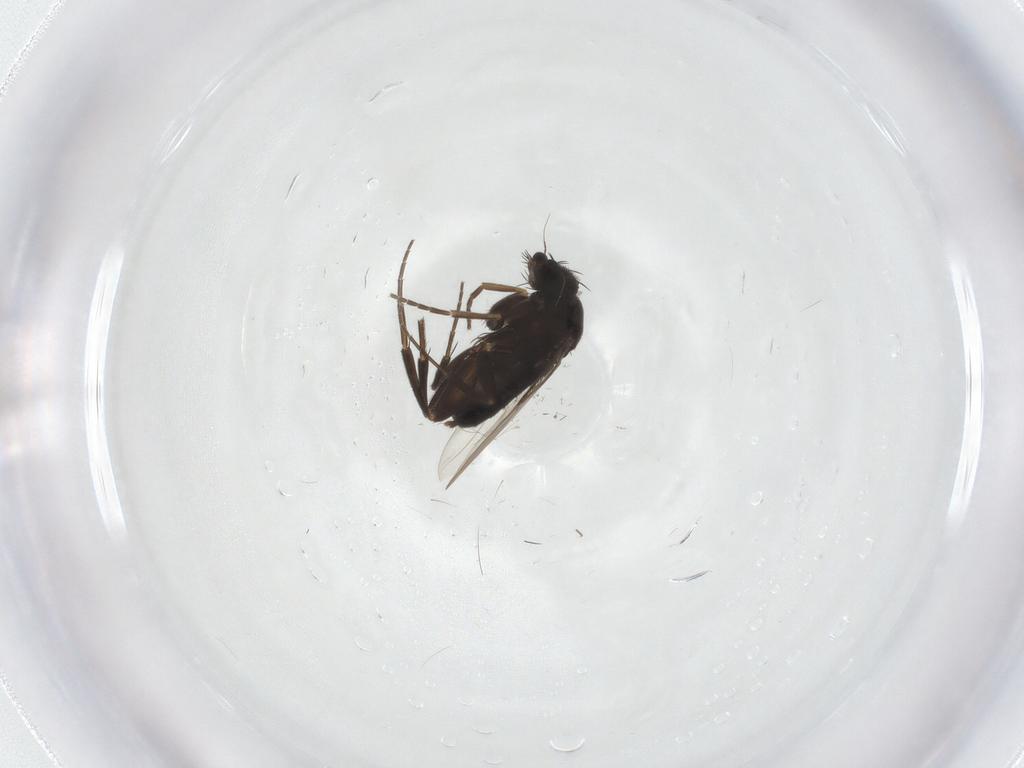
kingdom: Animalia
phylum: Arthropoda
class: Insecta
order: Diptera
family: Phoridae
